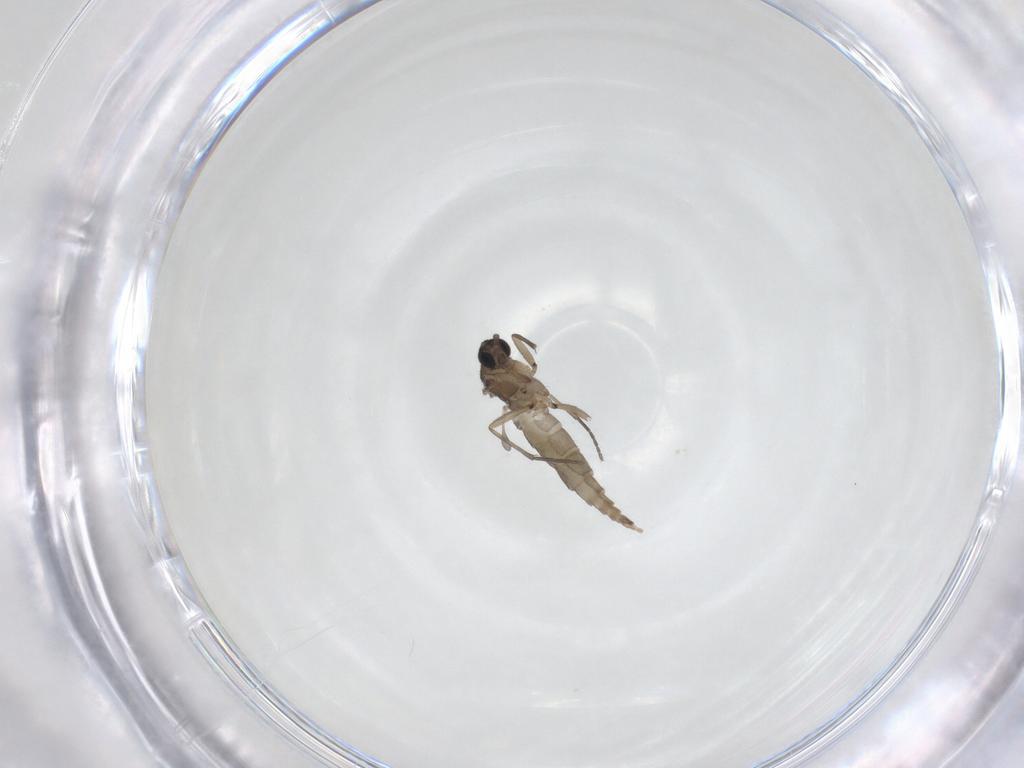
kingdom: Animalia
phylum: Arthropoda
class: Insecta
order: Diptera
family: Sciaridae
